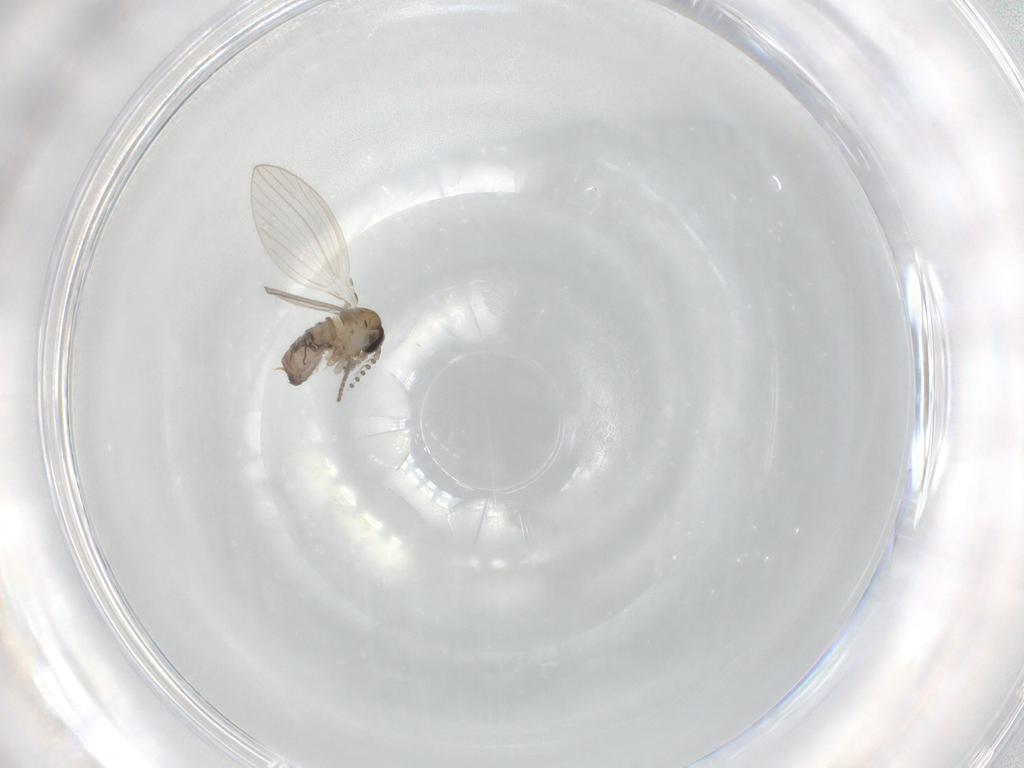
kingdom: Animalia
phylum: Arthropoda
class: Insecta
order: Diptera
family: Psychodidae
